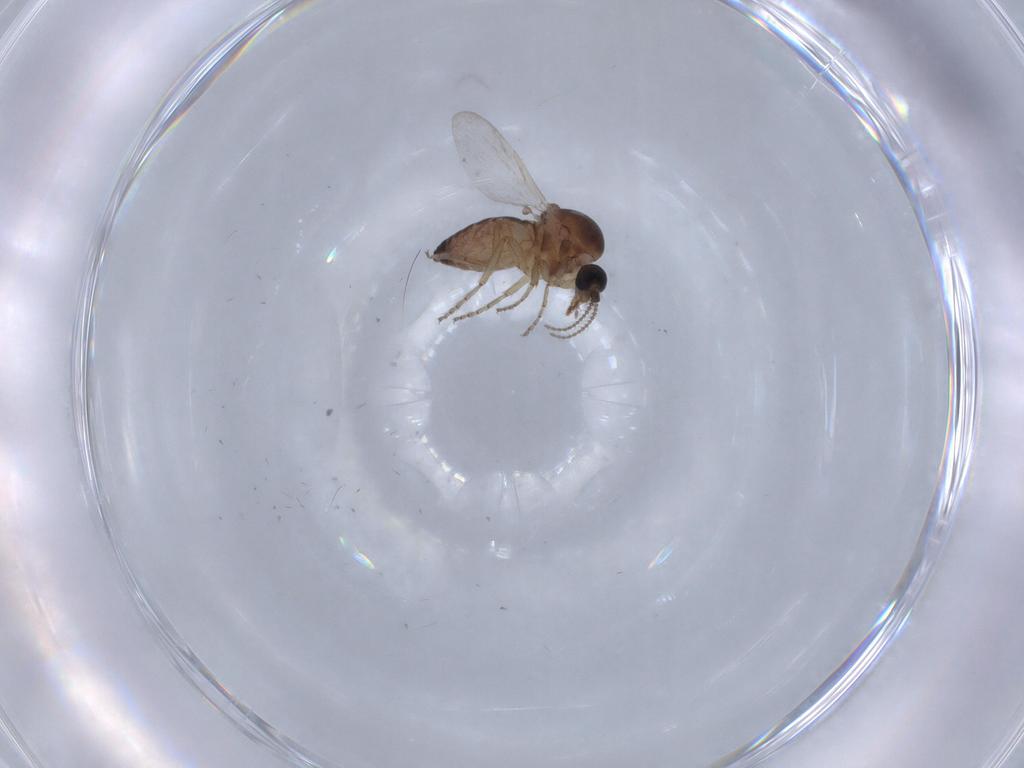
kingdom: Animalia
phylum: Arthropoda
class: Insecta
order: Diptera
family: Ceratopogonidae
